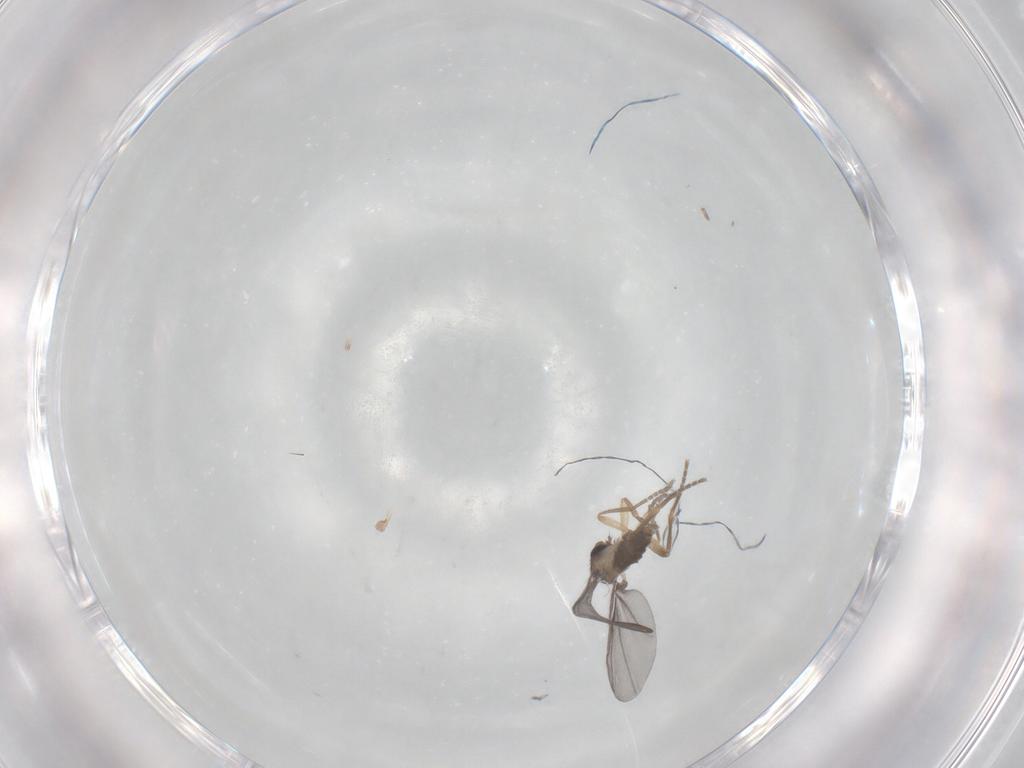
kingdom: Animalia
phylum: Arthropoda
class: Insecta
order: Diptera
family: Phoridae
